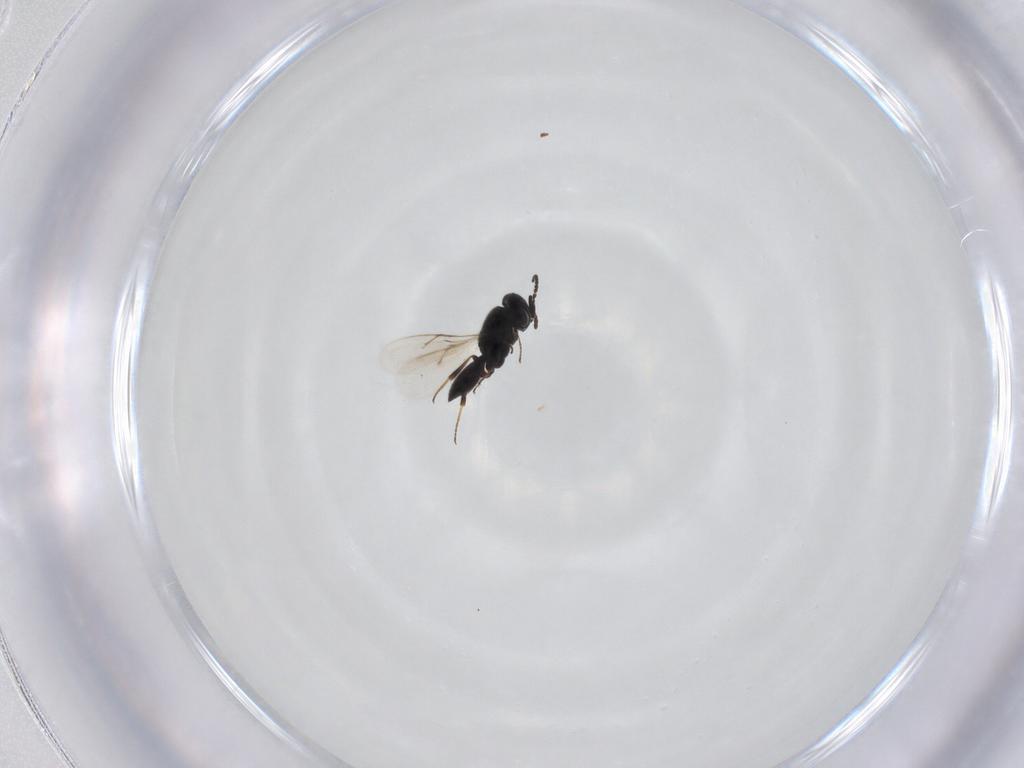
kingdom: Animalia
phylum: Arthropoda
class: Insecta
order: Hymenoptera
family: Scelionidae
